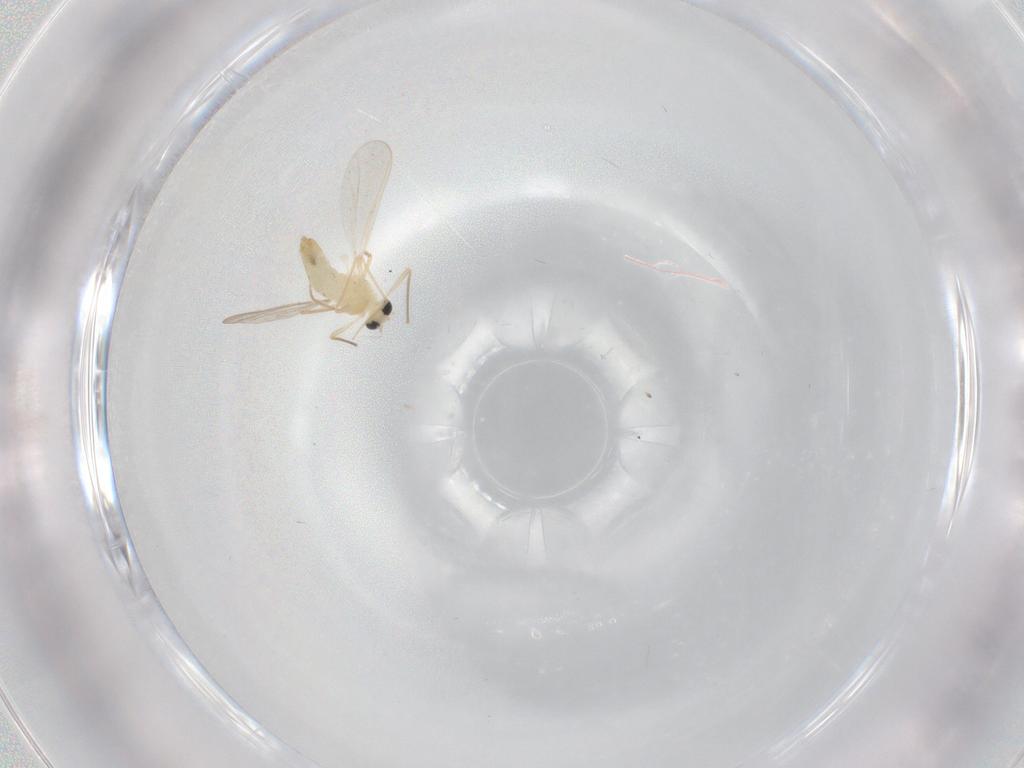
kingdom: Animalia
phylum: Arthropoda
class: Insecta
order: Diptera
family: Chironomidae
